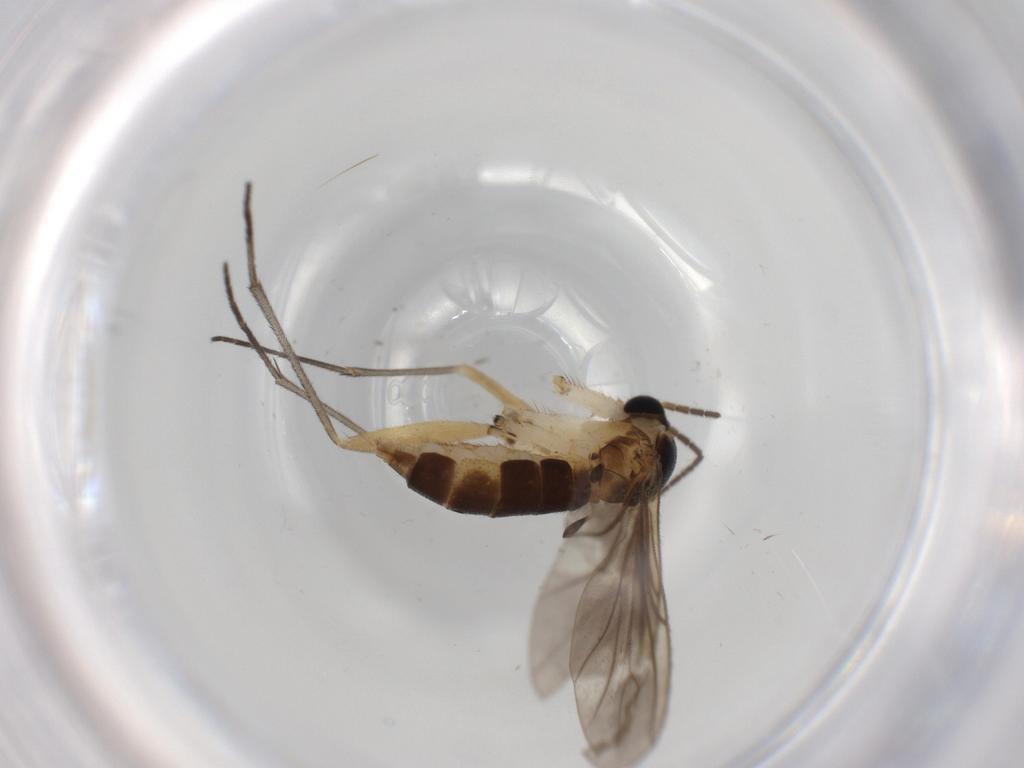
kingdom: Animalia
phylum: Arthropoda
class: Insecta
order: Diptera
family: Sciaridae
